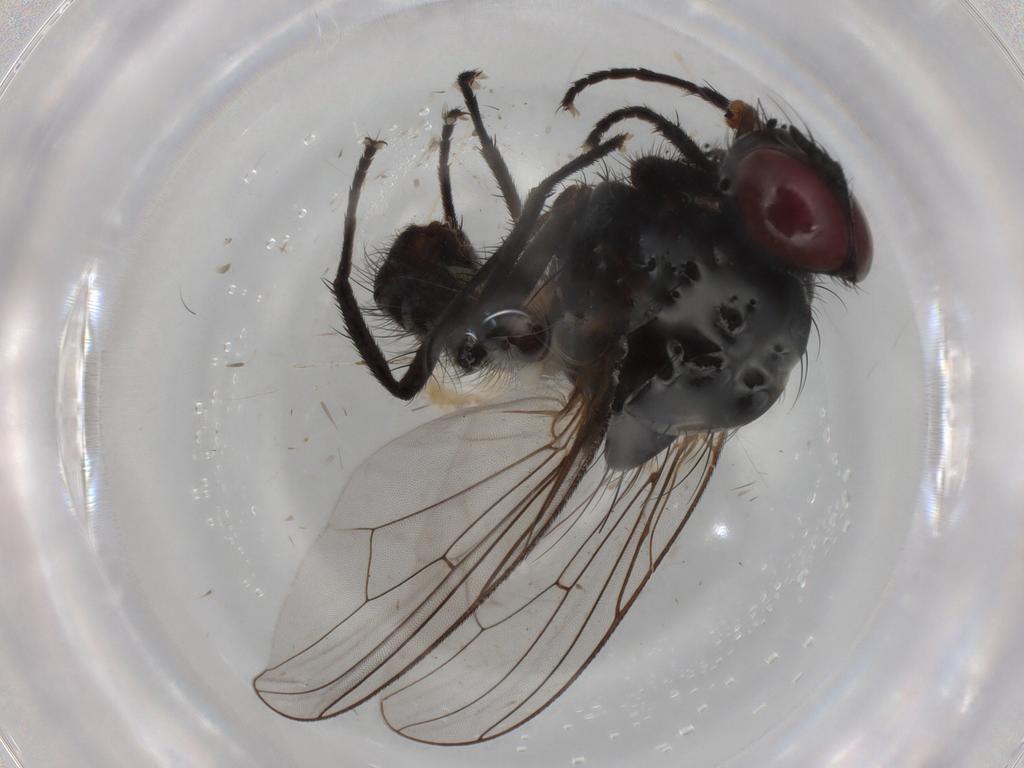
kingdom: Animalia
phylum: Arthropoda
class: Insecta
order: Diptera
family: Anthomyiidae
